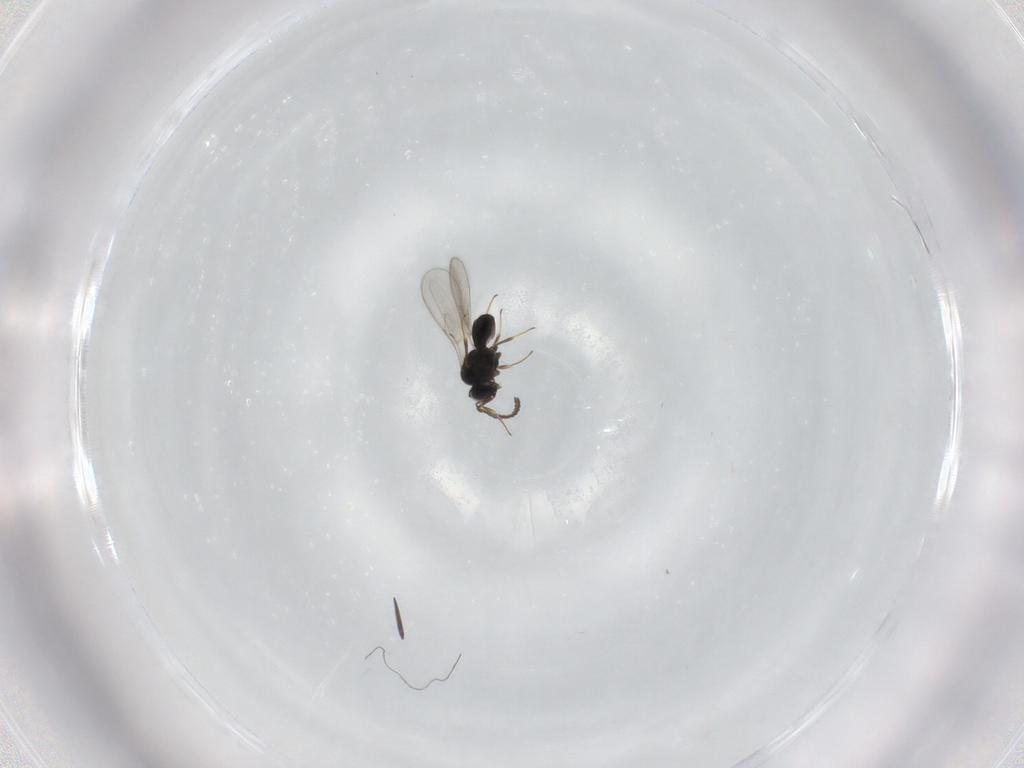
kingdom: Animalia
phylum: Arthropoda
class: Insecta
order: Hymenoptera
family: Scelionidae
